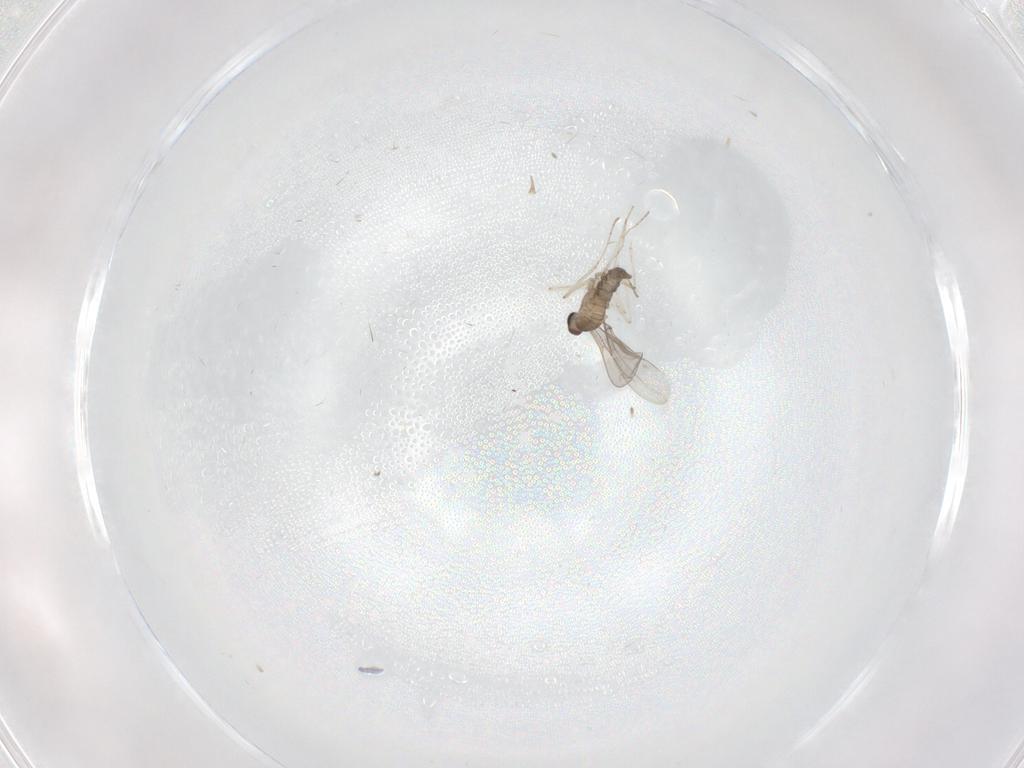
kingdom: Animalia
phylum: Arthropoda
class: Insecta
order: Diptera
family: Cecidomyiidae
